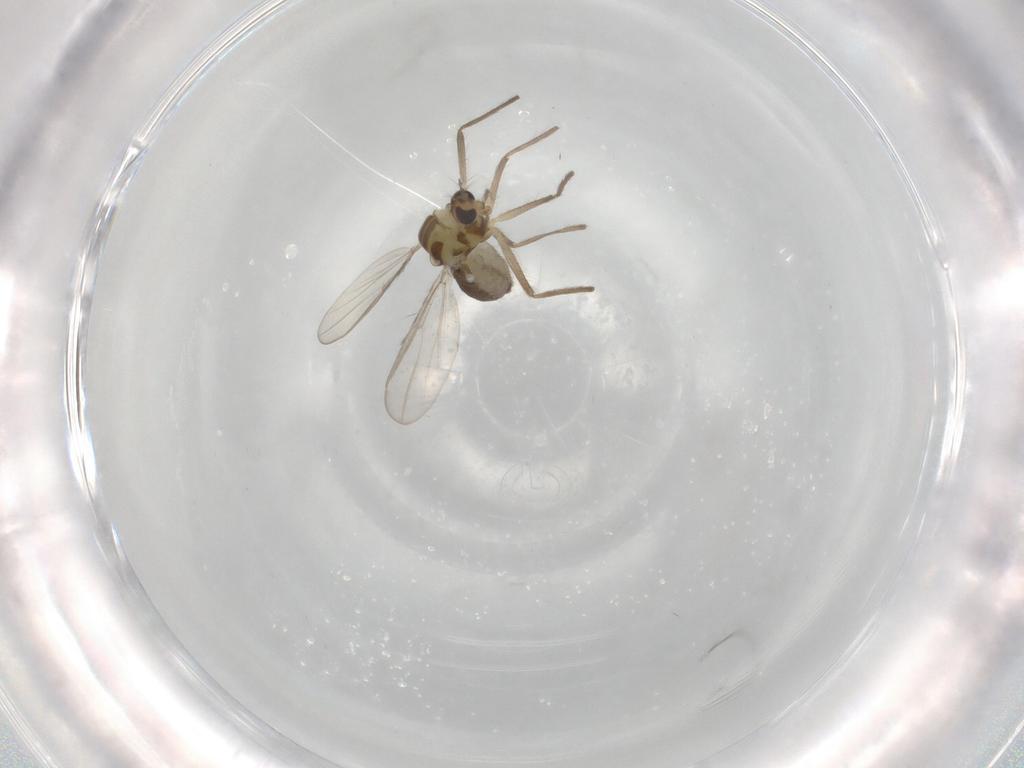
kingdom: Animalia
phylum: Arthropoda
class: Insecta
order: Diptera
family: Chironomidae
